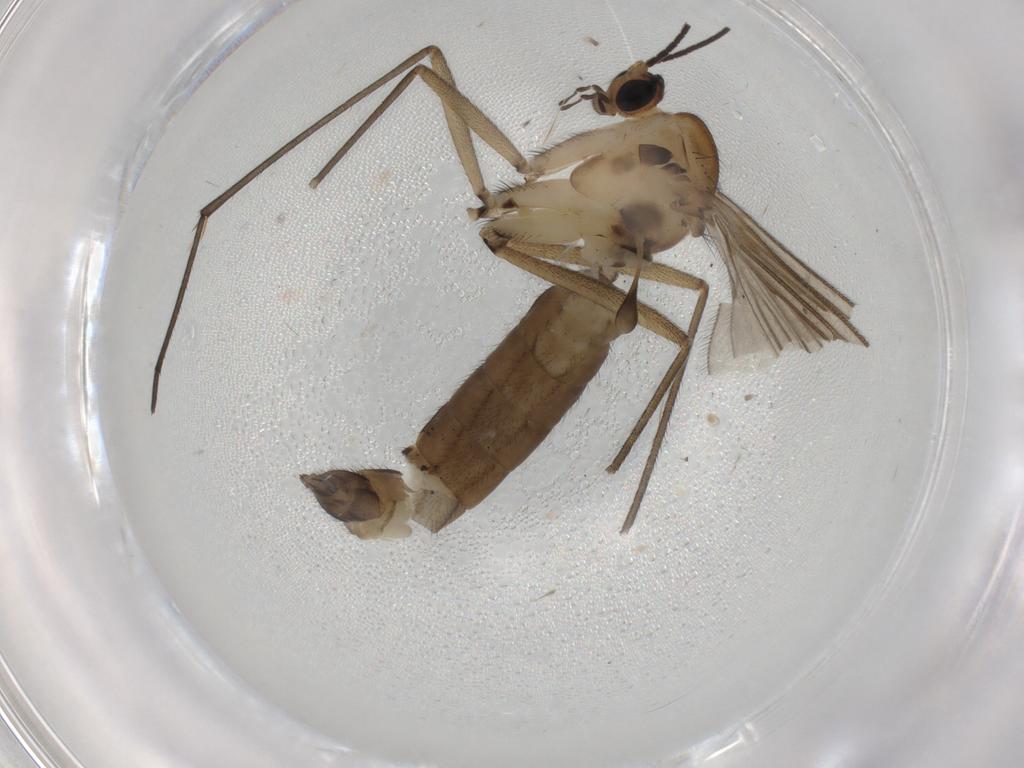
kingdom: Animalia
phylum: Arthropoda
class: Insecta
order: Diptera
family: Sciaridae
